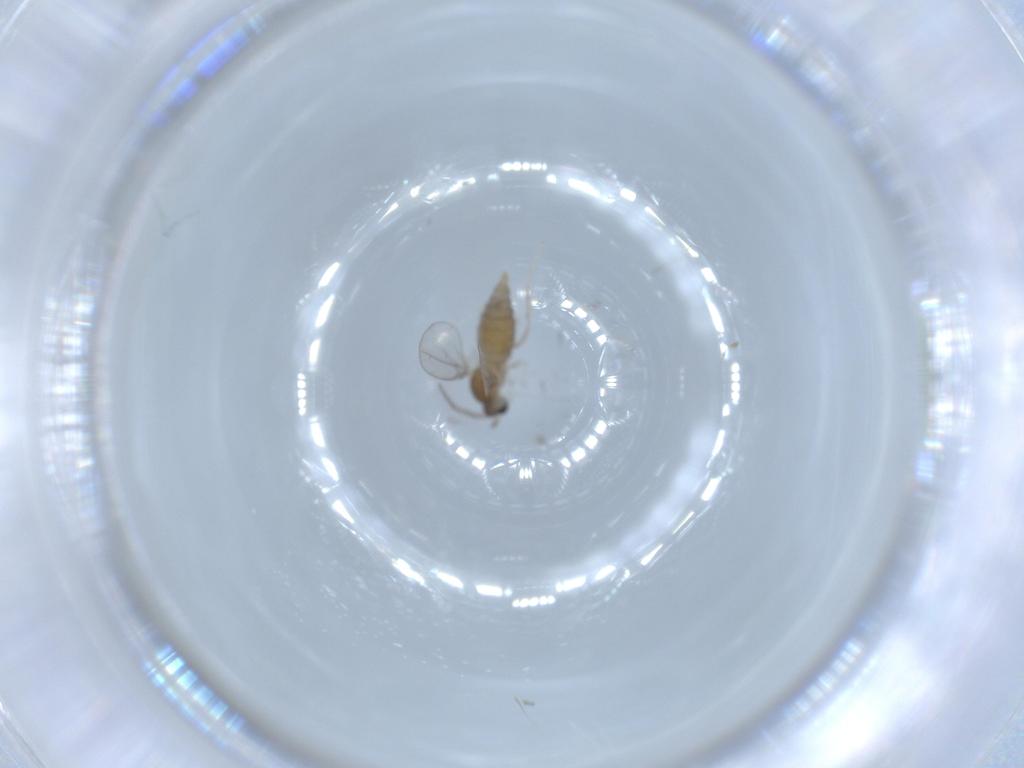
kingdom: Animalia
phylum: Arthropoda
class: Insecta
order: Diptera
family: Cecidomyiidae
